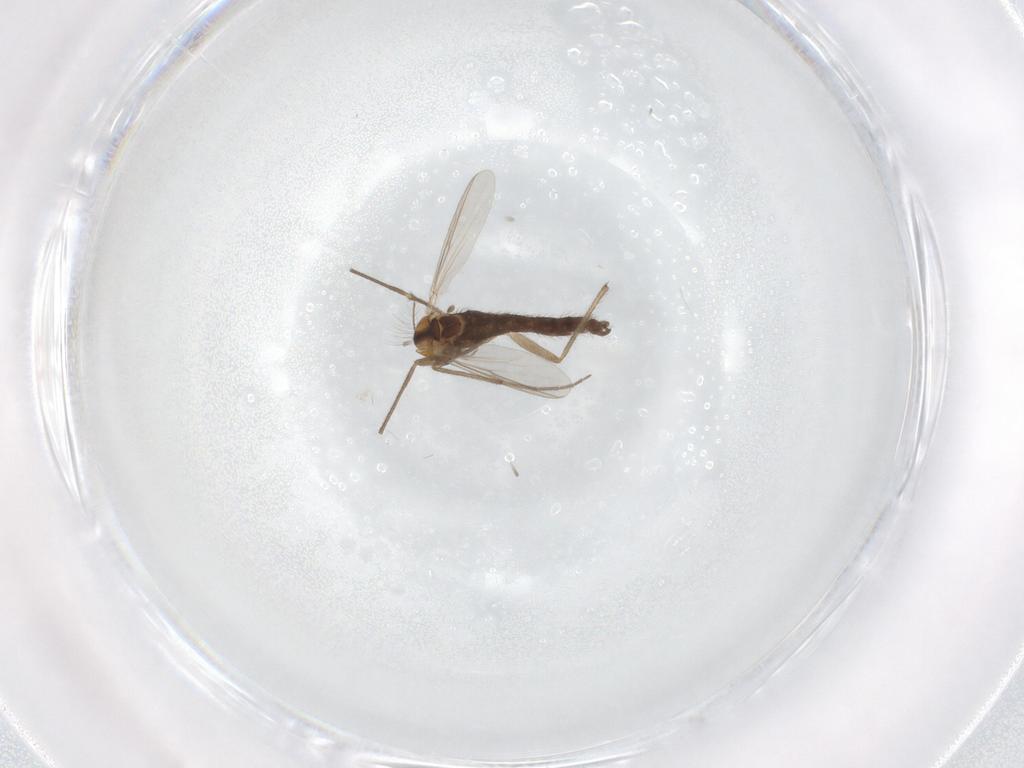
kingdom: Animalia
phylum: Arthropoda
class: Insecta
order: Diptera
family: Chironomidae
